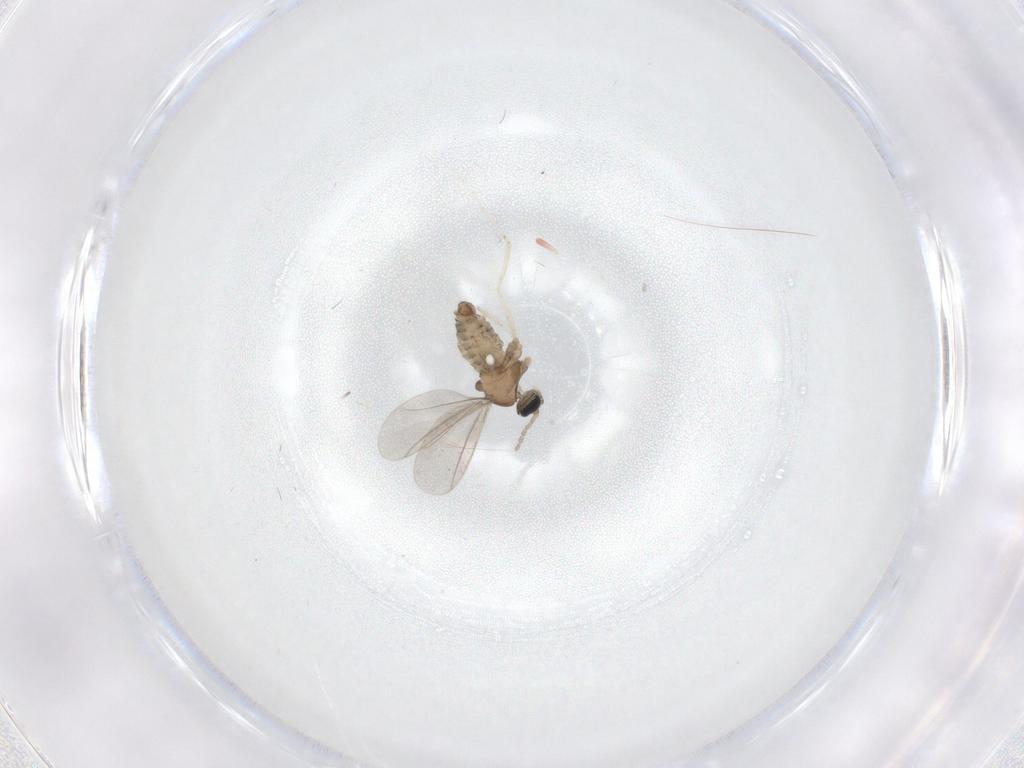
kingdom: Animalia
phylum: Arthropoda
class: Insecta
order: Diptera
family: Cecidomyiidae
